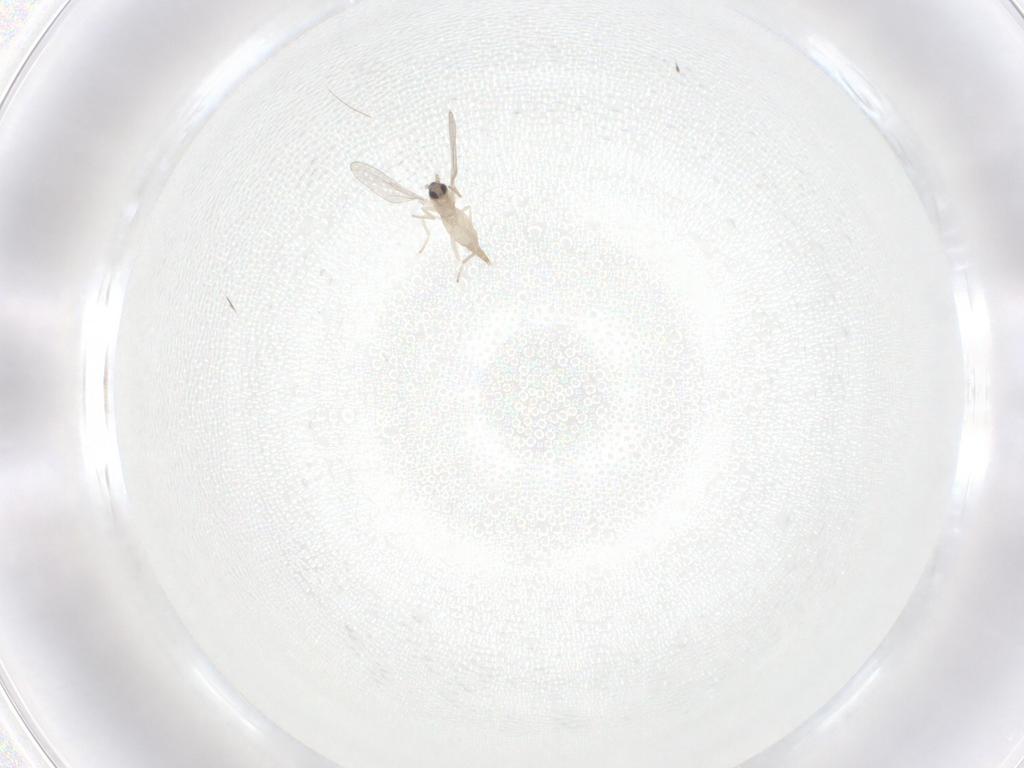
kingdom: Animalia
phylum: Arthropoda
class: Insecta
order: Diptera
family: Cecidomyiidae
